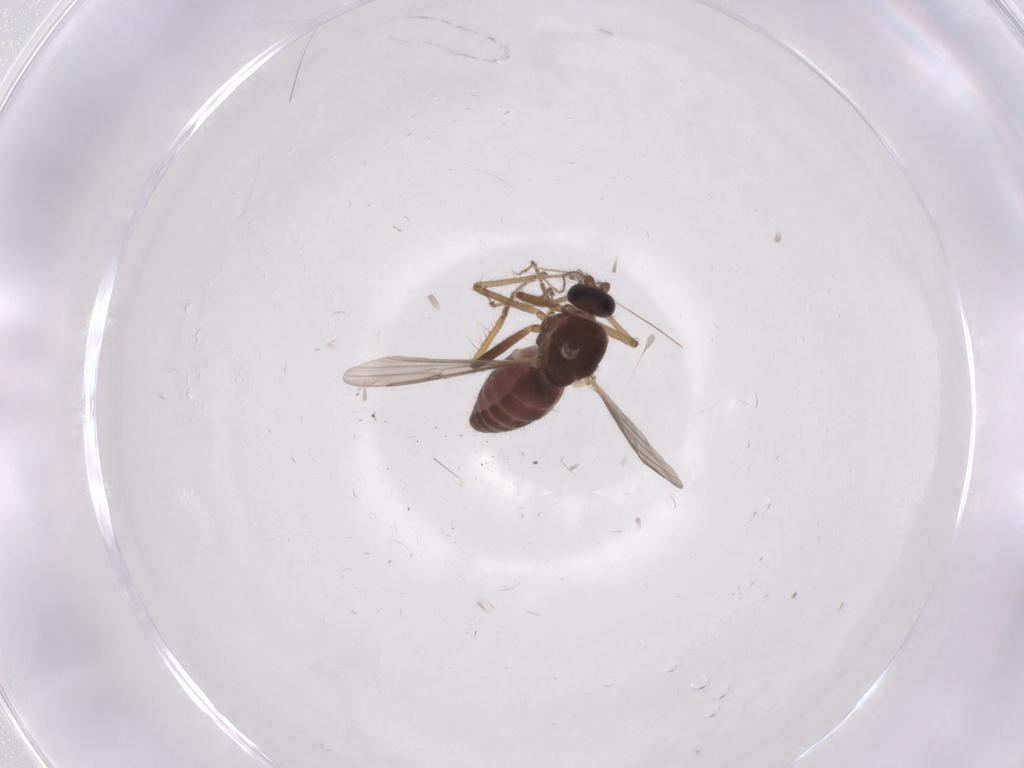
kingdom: Animalia
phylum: Arthropoda
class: Insecta
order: Diptera
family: Ceratopogonidae
